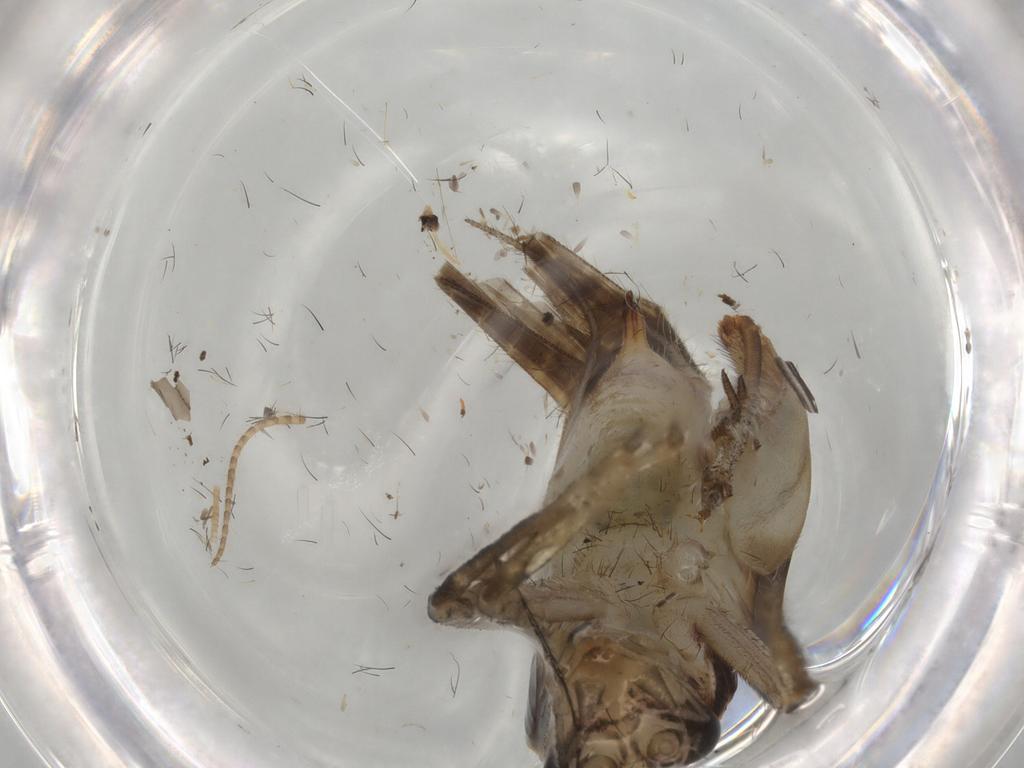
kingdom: Animalia
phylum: Arthropoda
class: Insecta
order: Orthoptera
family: Trigonidiidae
